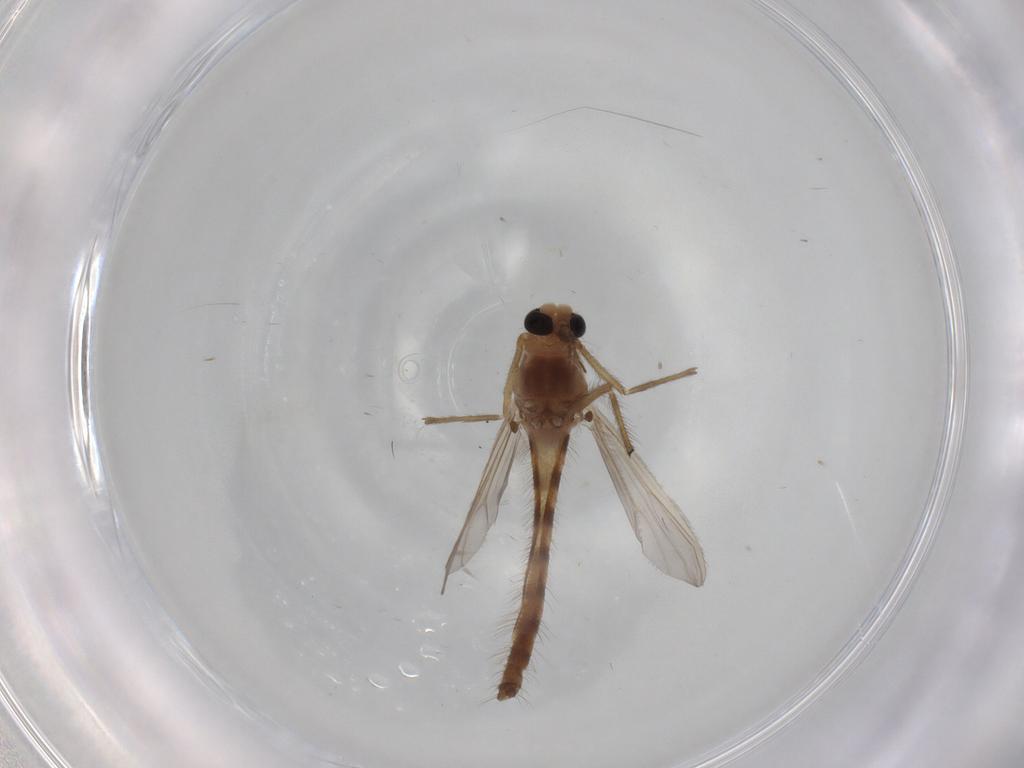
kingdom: Animalia
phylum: Arthropoda
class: Insecta
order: Diptera
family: Chironomidae
